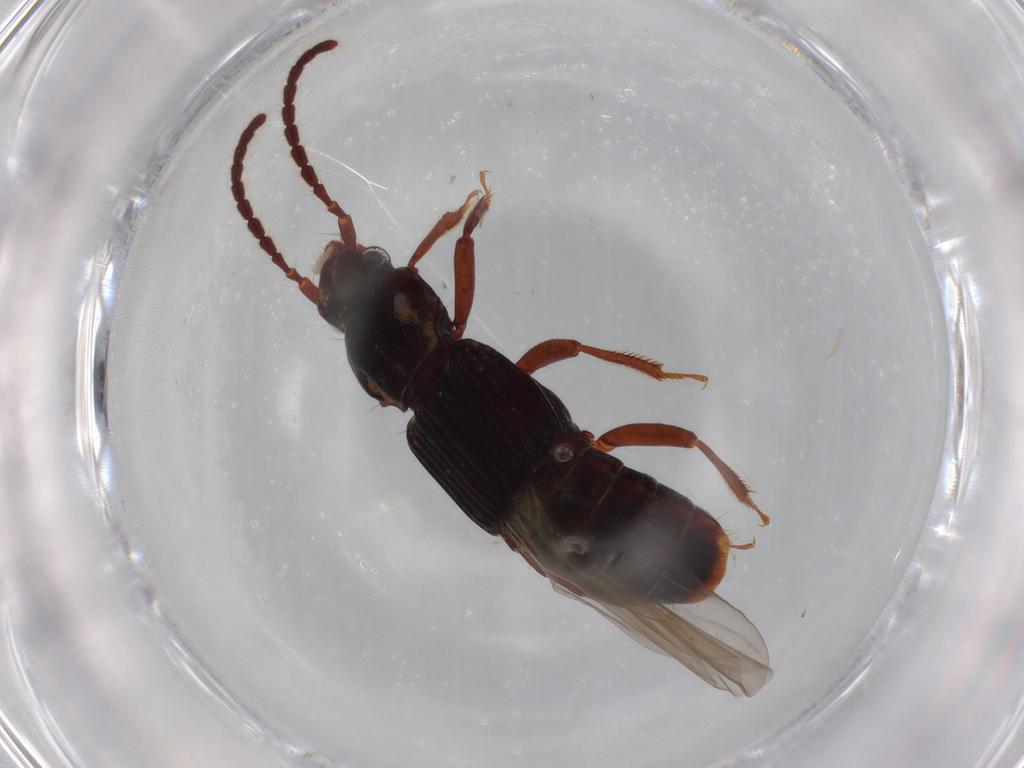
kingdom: Animalia
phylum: Arthropoda
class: Insecta
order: Coleoptera
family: Staphylinidae
